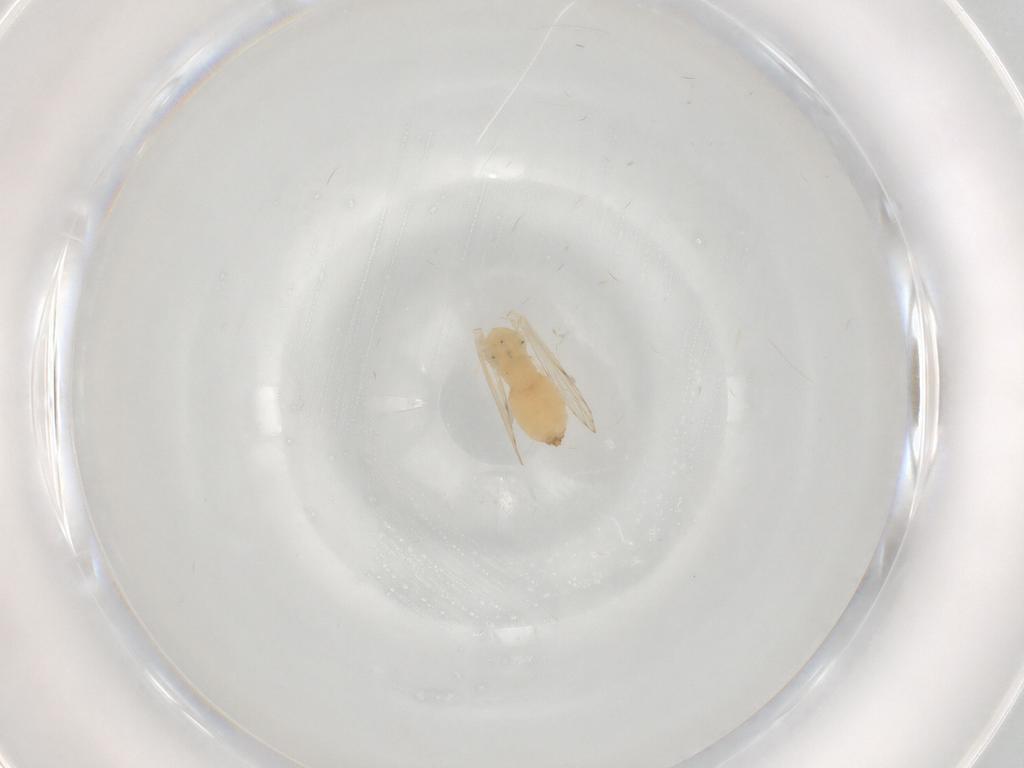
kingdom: Animalia
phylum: Arthropoda
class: Insecta
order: Diptera
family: Psychodidae
